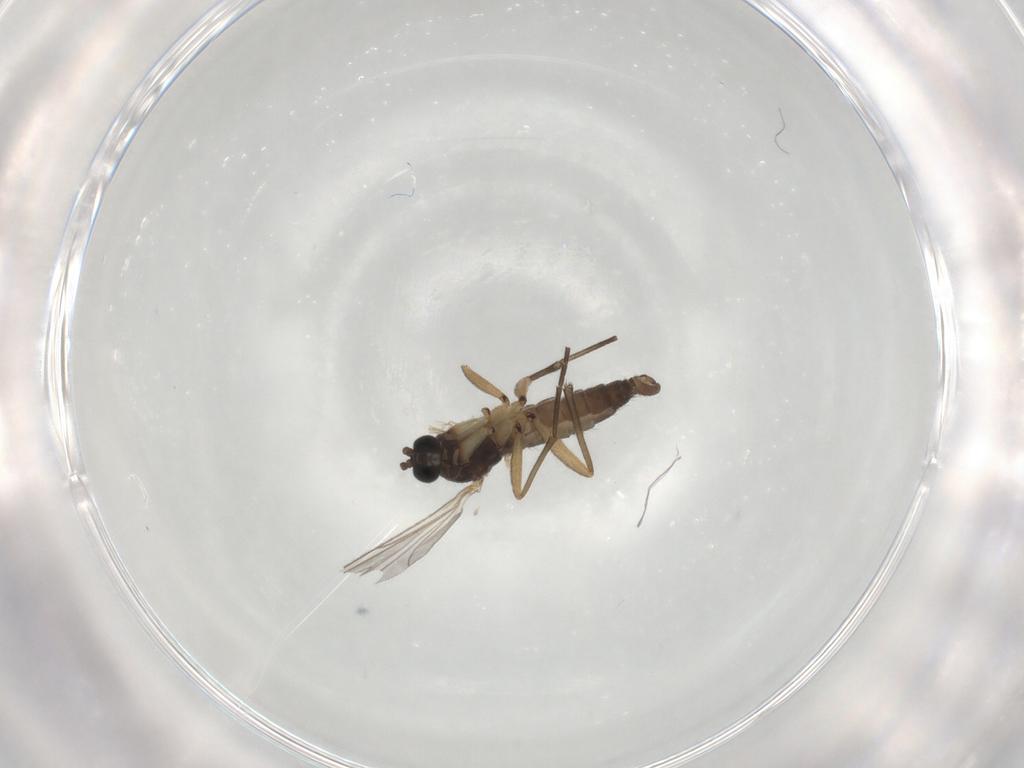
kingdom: Animalia
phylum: Arthropoda
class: Insecta
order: Diptera
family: Sciaridae
